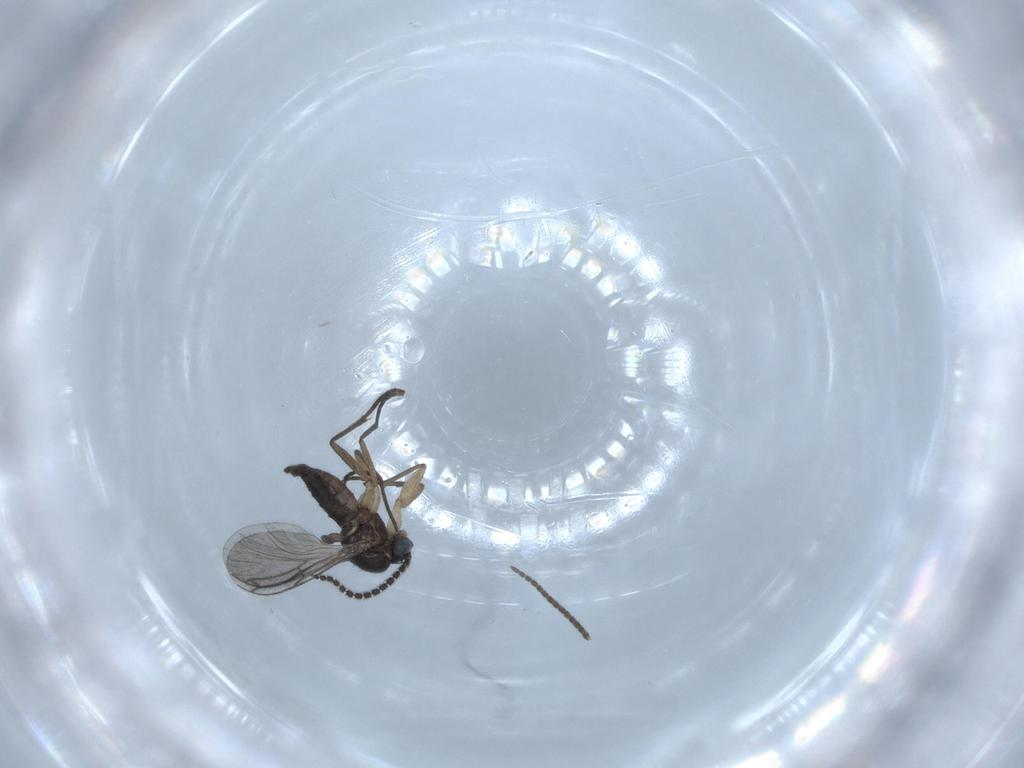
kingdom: Animalia
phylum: Arthropoda
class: Insecta
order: Diptera
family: Sciaridae
